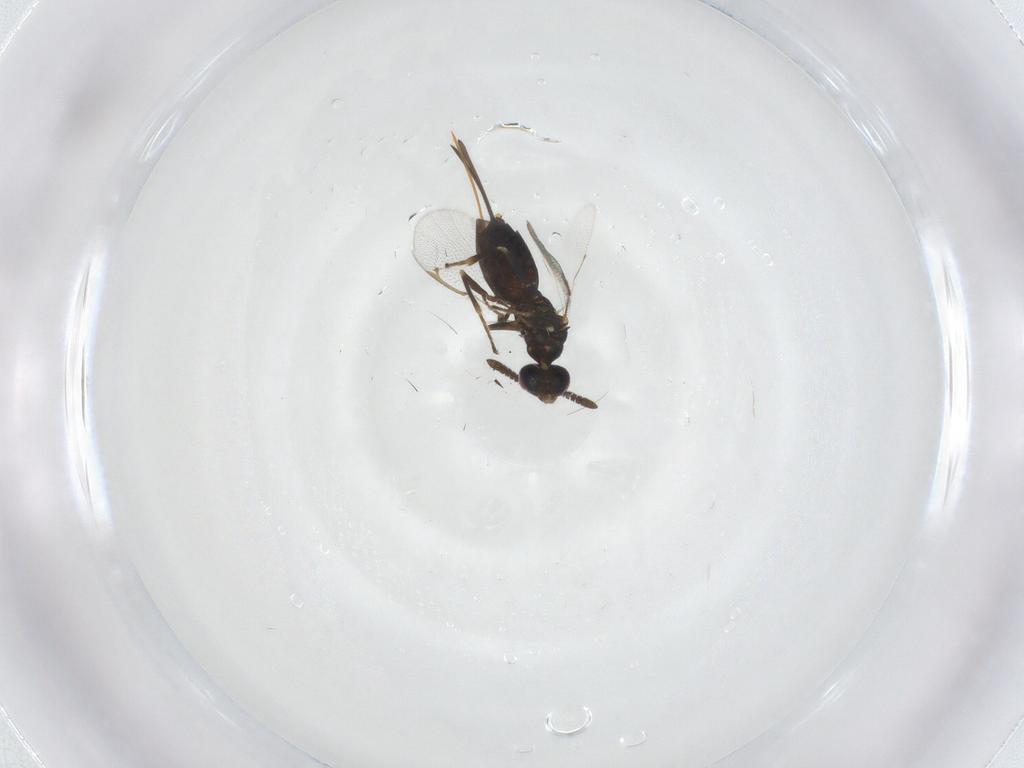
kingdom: Animalia
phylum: Arthropoda
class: Insecta
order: Hymenoptera
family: Torymidae
